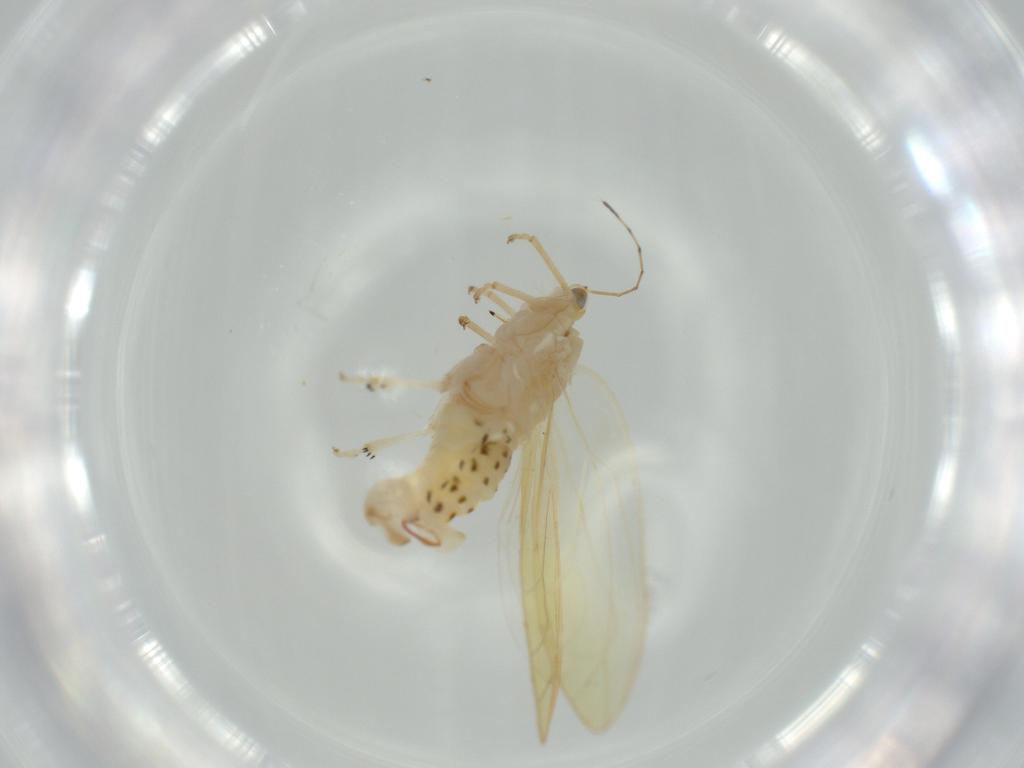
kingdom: Animalia
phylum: Arthropoda
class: Insecta
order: Hemiptera
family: Triozidae
